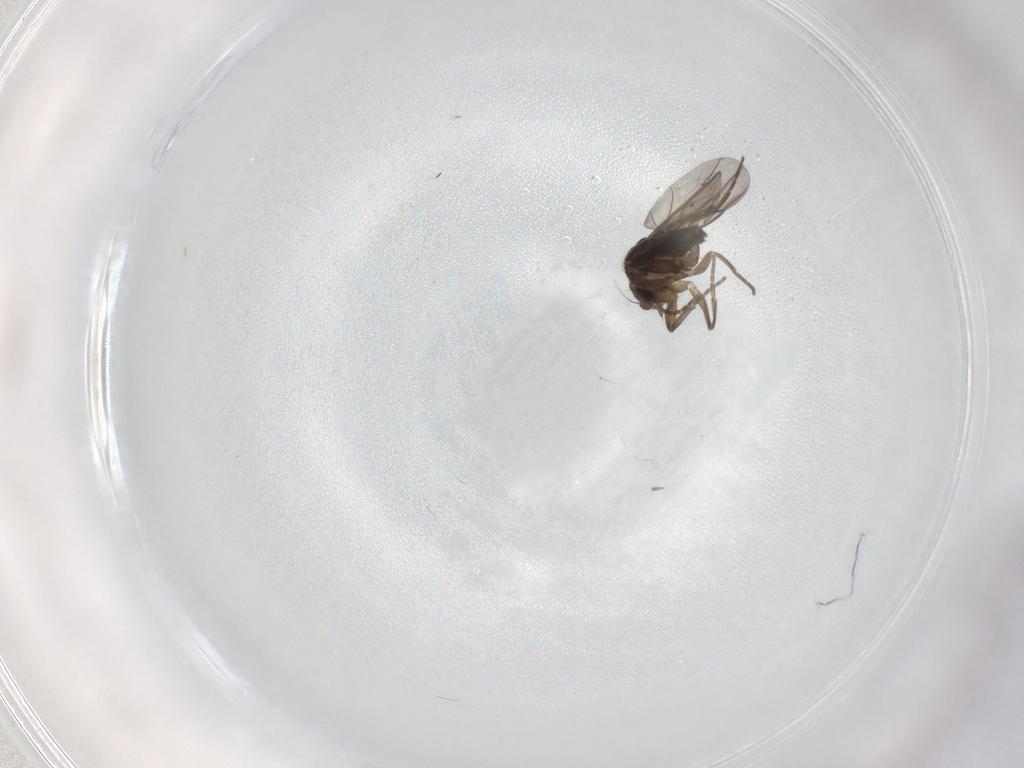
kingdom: Animalia
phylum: Arthropoda
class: Insecta
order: Diptera
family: Phoridae
